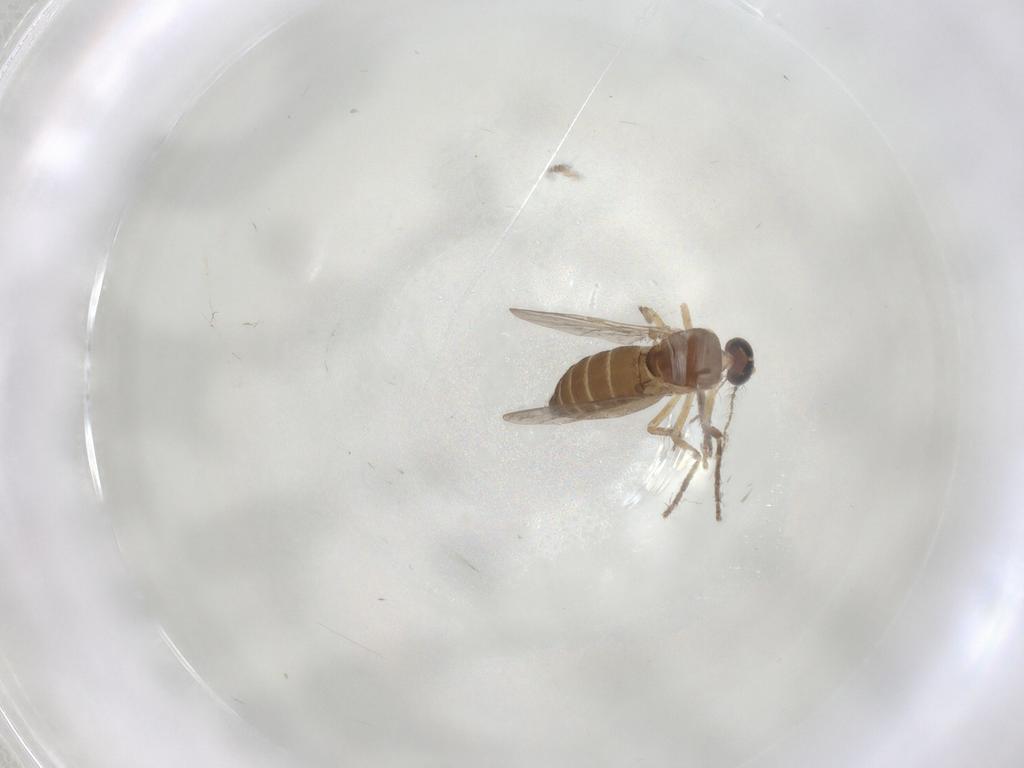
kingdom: Animalia
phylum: Arthropoda
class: Insecta
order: Diptera
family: Ceratopogonidae
